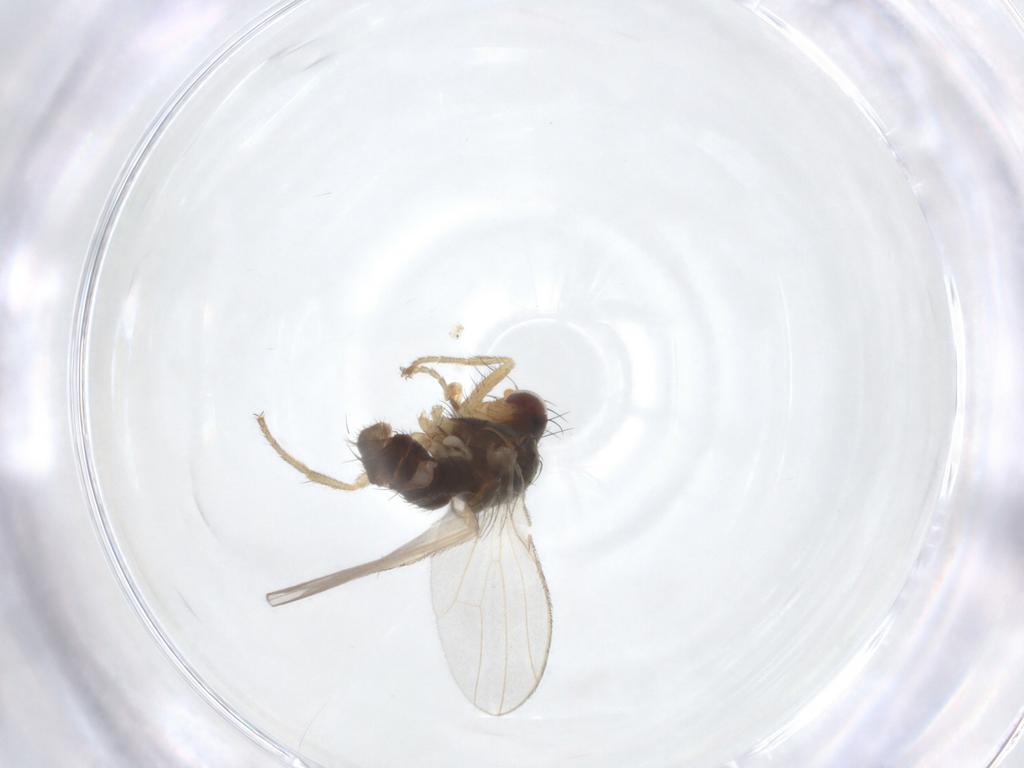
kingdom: Animalia
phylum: Arthropoda
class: Insecta
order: Diptera
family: Heleomyzidae
